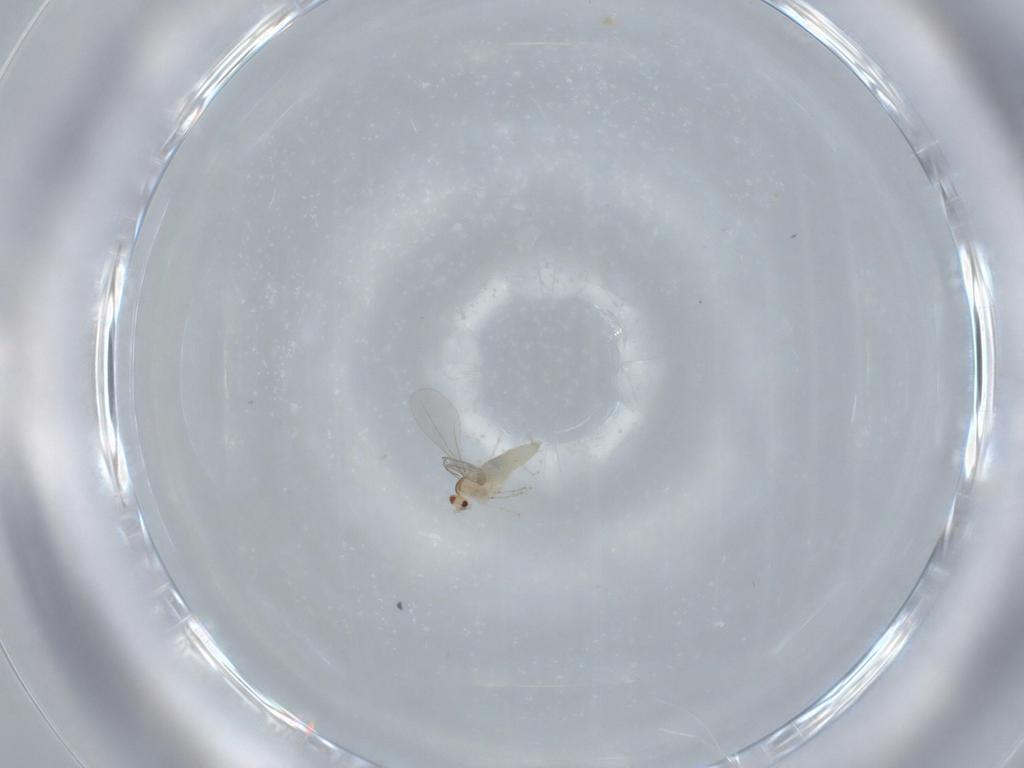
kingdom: Animalia
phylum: Arthropoda
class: Insecta
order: Diptera
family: Cecidomyiidae
